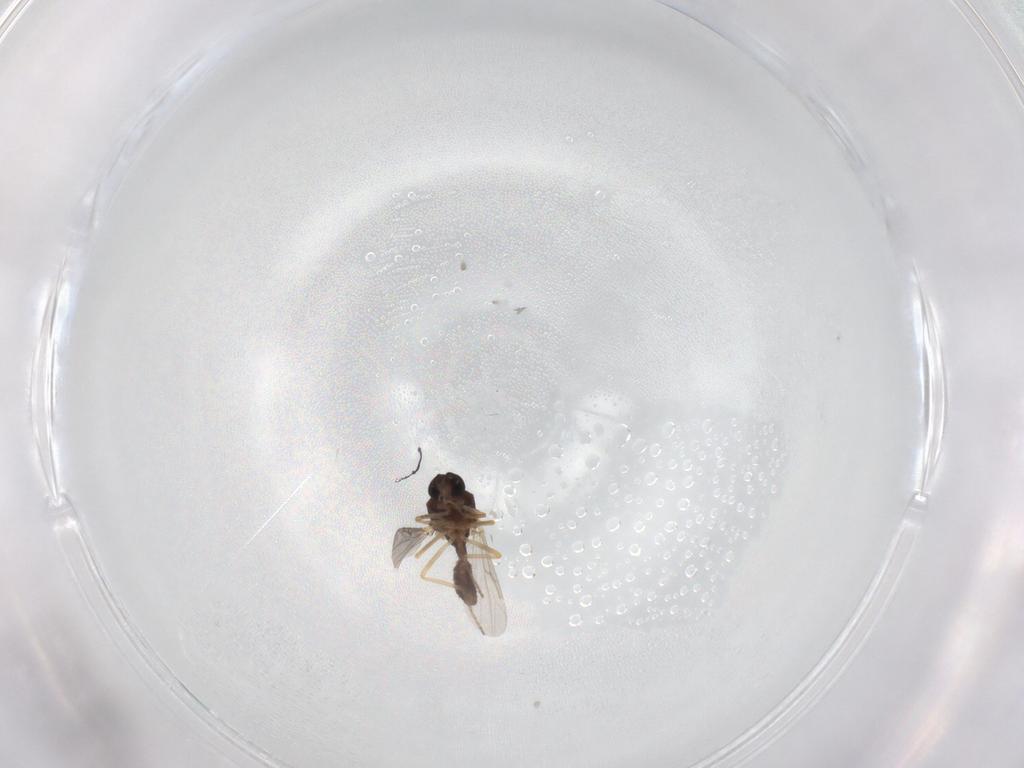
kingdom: Animalia
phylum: Arthropoda
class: Insecta
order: Diptera
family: Ceratopogonidae
